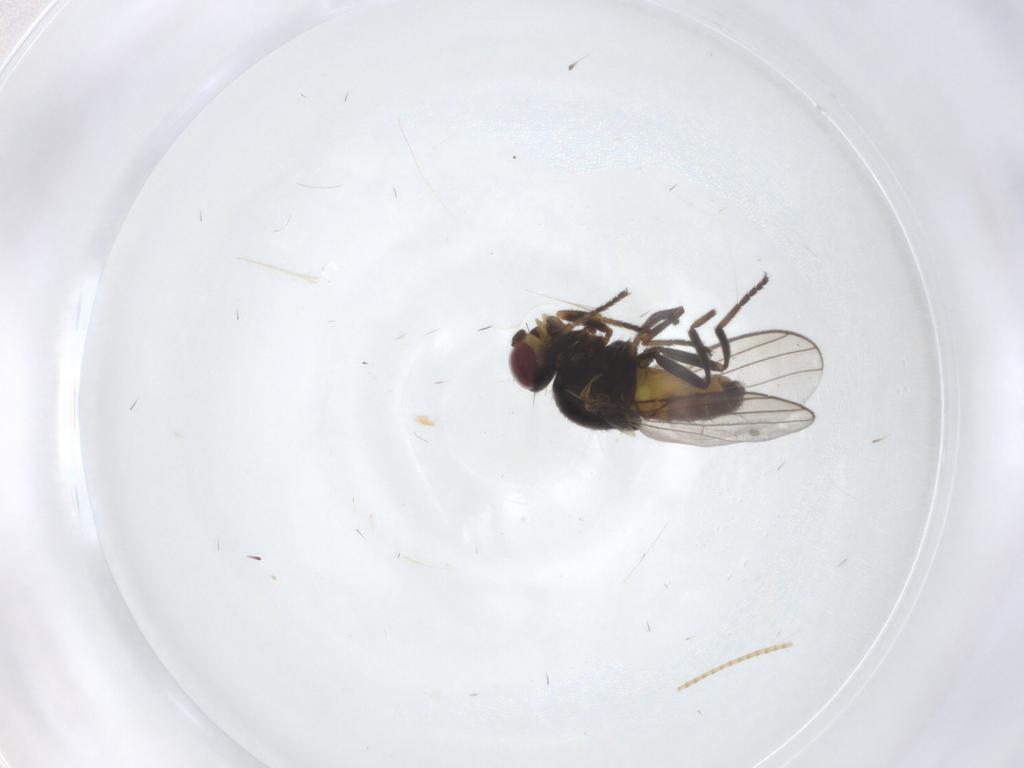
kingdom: Animalia
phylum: Arthropoda
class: Insecta
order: Diptera
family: Chloropidae
